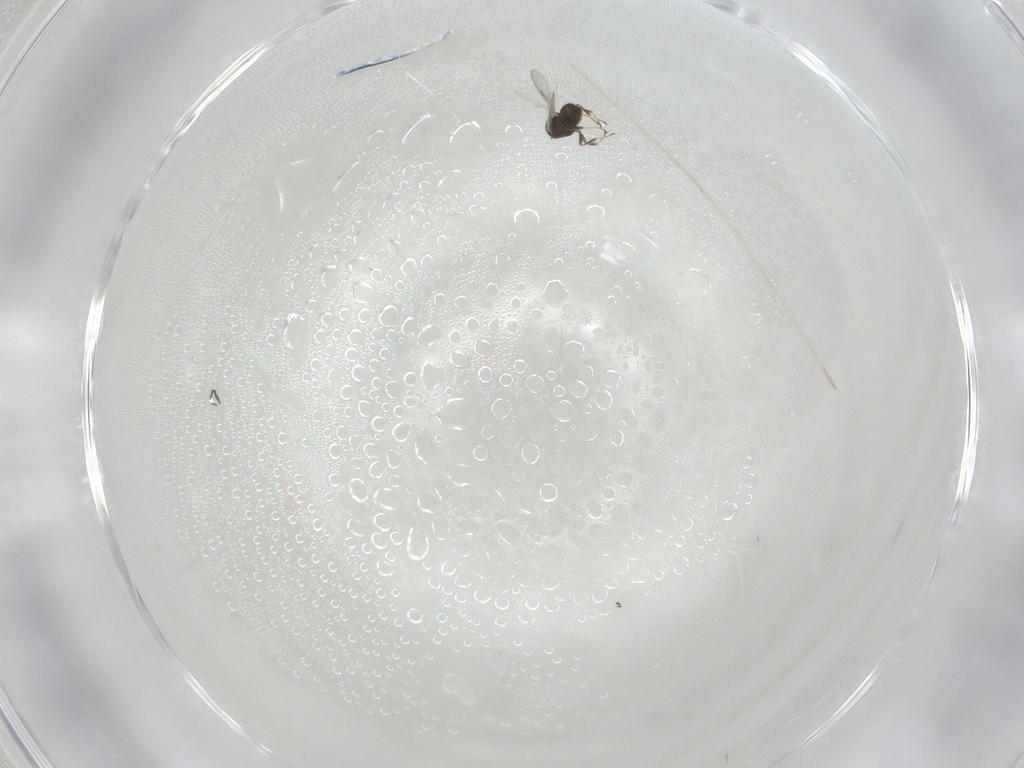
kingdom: Animalia
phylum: Arthropoda
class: Insecta
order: Hymenoptera
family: Scelionidae
